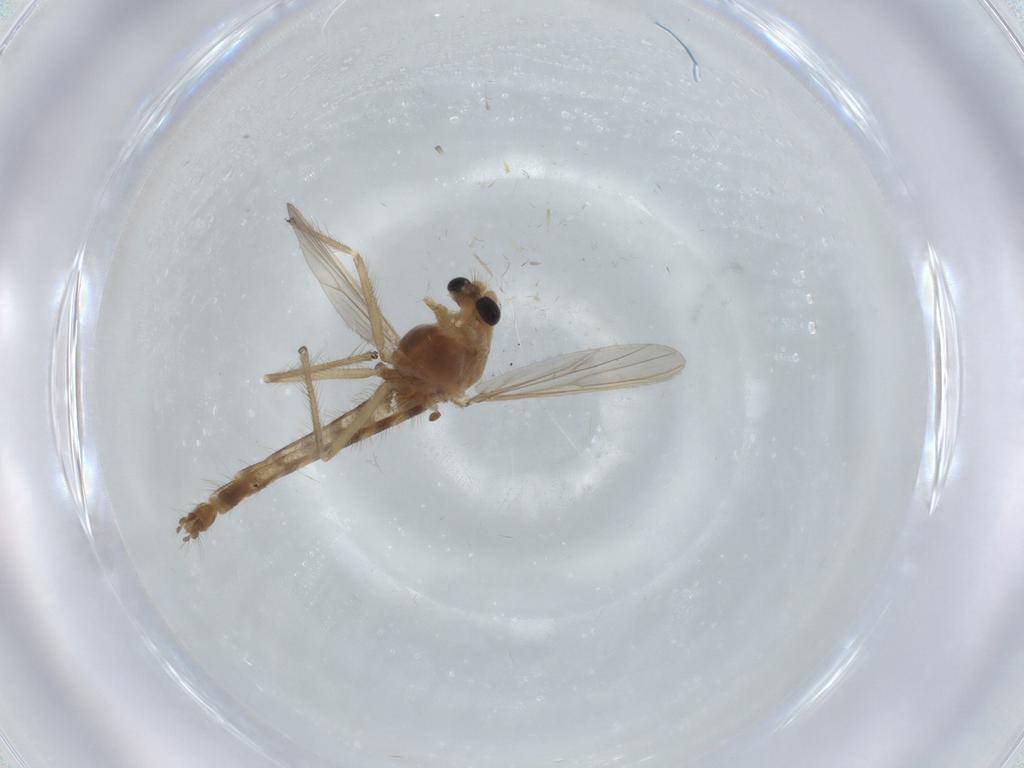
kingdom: Animalia
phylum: Arthropoda
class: Insecta
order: Diptera
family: Chironomidae
